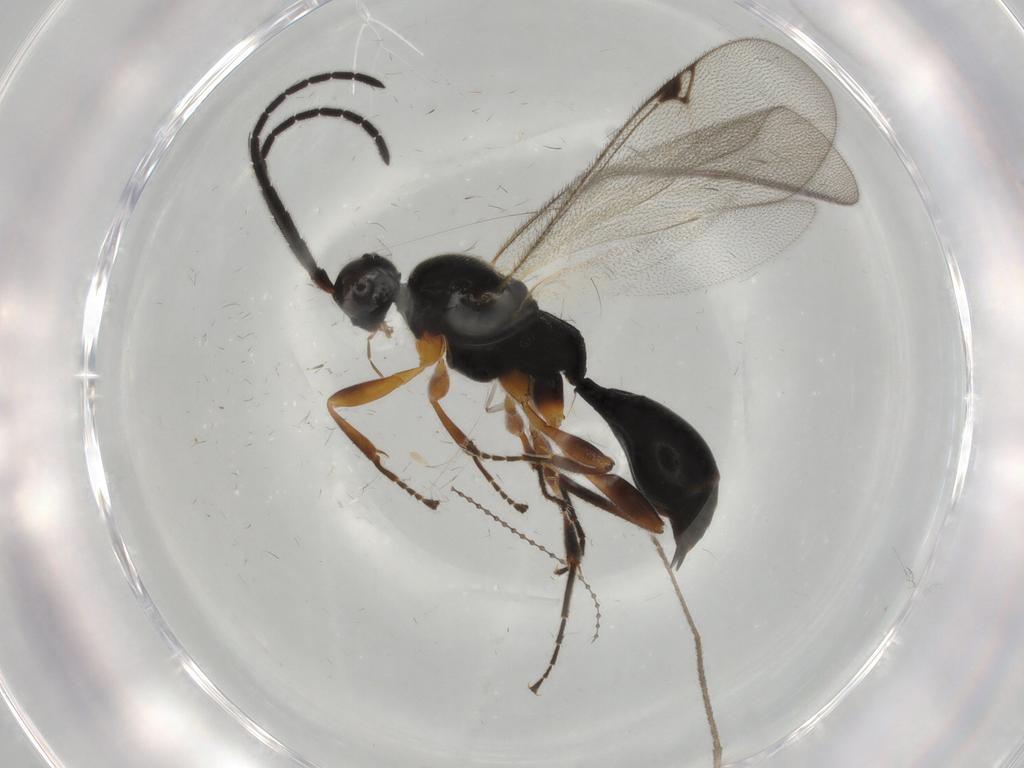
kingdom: Animalia
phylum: Arthropoda
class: Insecta
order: Hymenoptera
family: Proctotrupidae
